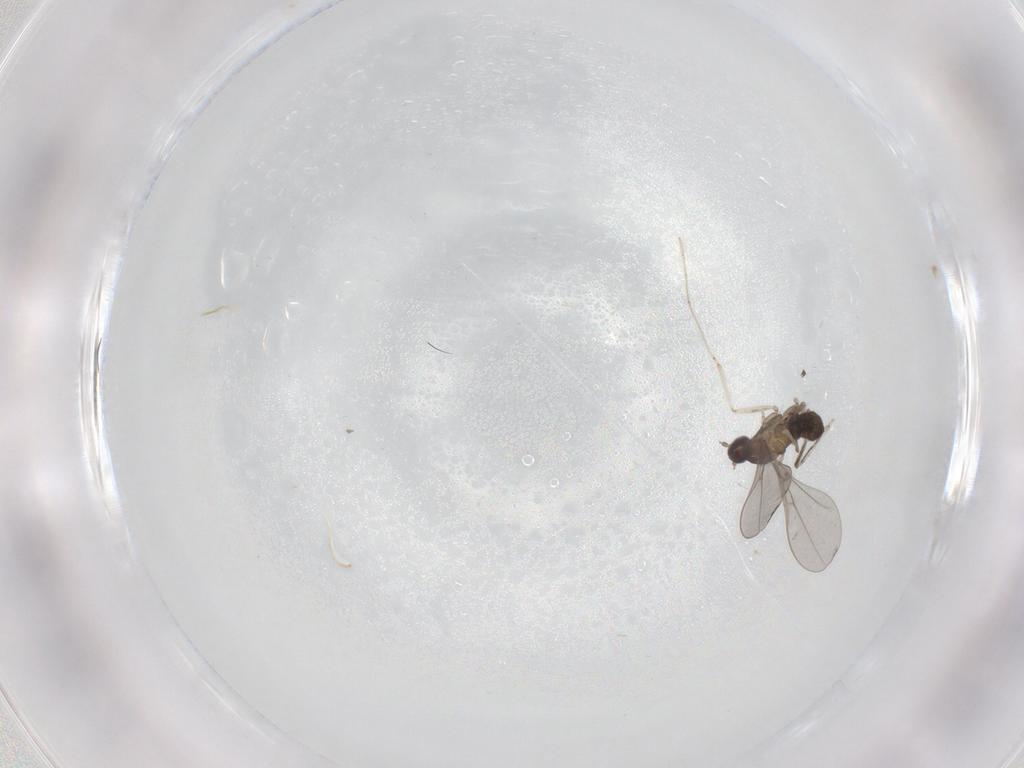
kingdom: Animalia
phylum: Arthropoda
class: Insecta
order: Diptera
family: Cecidomyiidae
